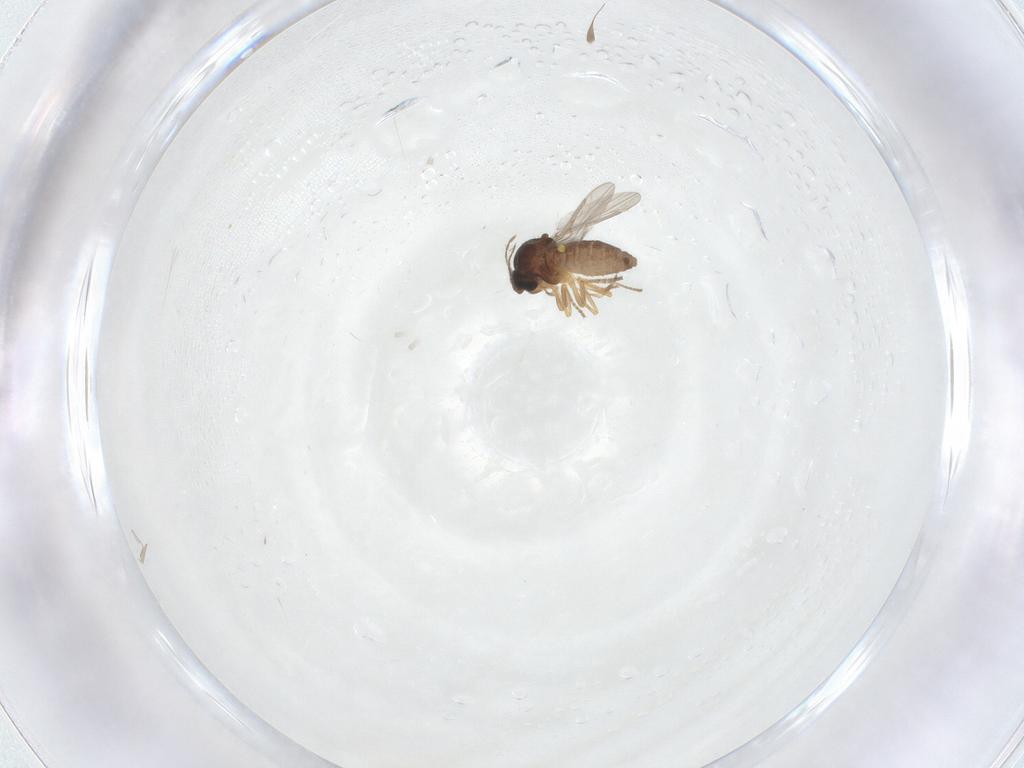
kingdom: Animalia
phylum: Arthropoda
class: Insecta
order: Diptera
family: Ceratopogonidae
